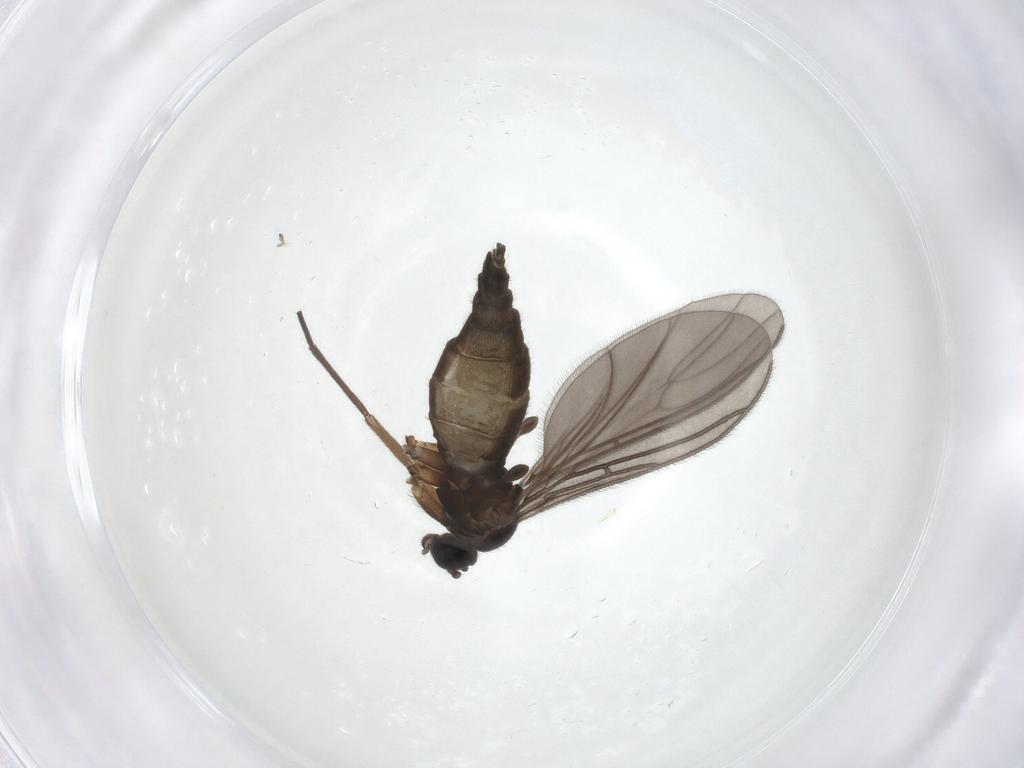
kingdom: Animalia
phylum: Arthropoda
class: Insecta
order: Diptera
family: Sciaridae
